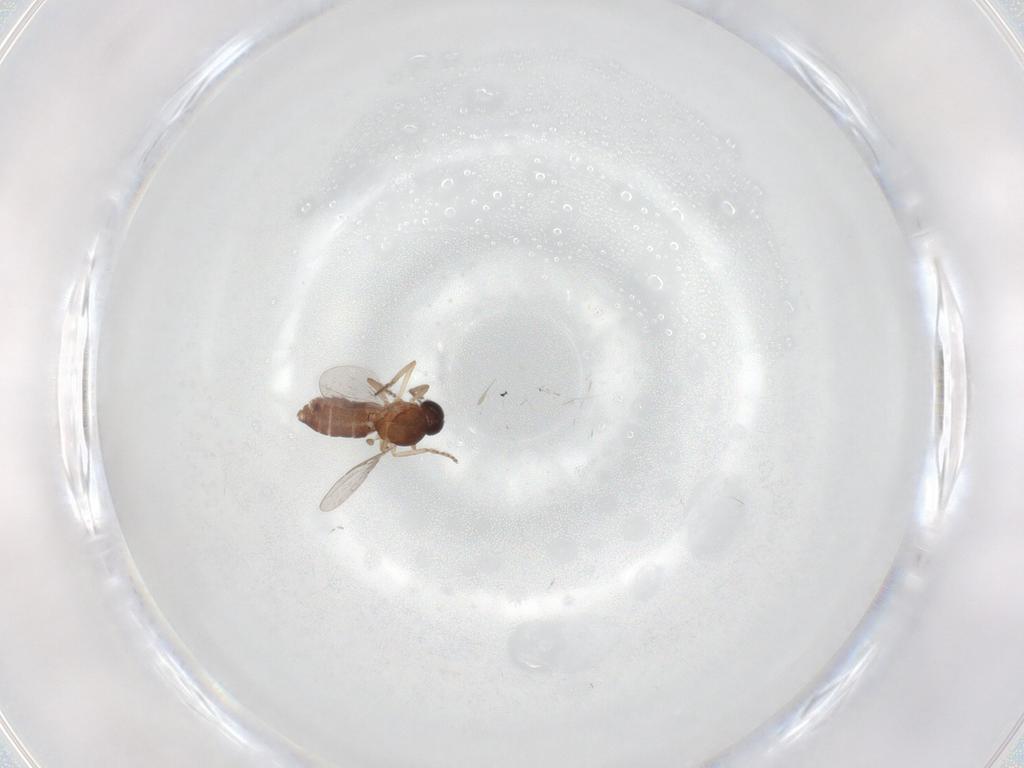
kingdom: Animalia
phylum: Arthropoda
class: Insecta
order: Diptera
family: Ceratopogonidae
